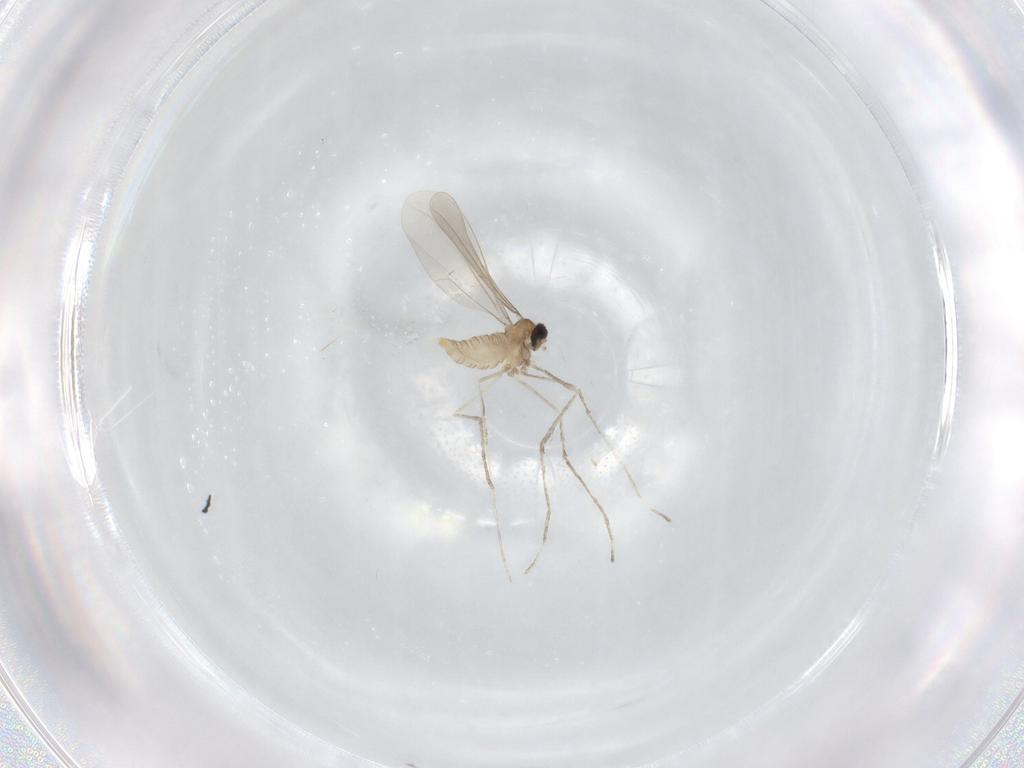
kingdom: Animalia
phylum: Arthropoda
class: Insecta
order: Diptera
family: Cecidomyiidae
